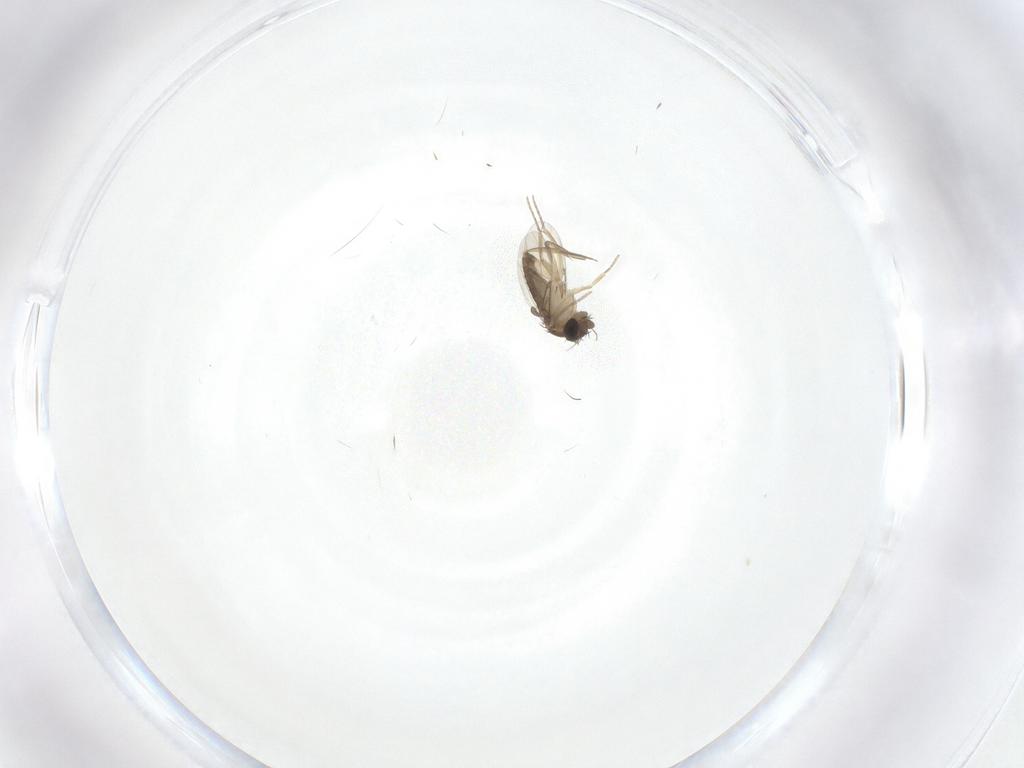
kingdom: Animalia
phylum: Arthropoda
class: Insecta
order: Diptera
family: Phoridae
